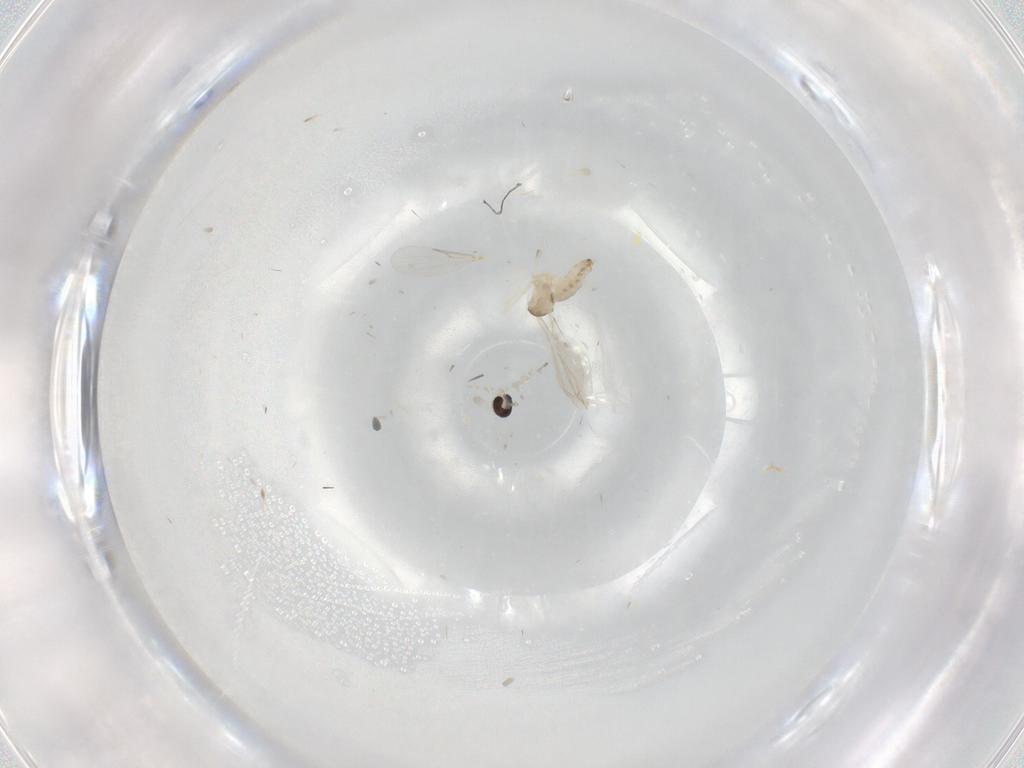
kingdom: Animalia
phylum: Arthropoda
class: Insecta
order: Diptera
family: Cecidomyiidae
